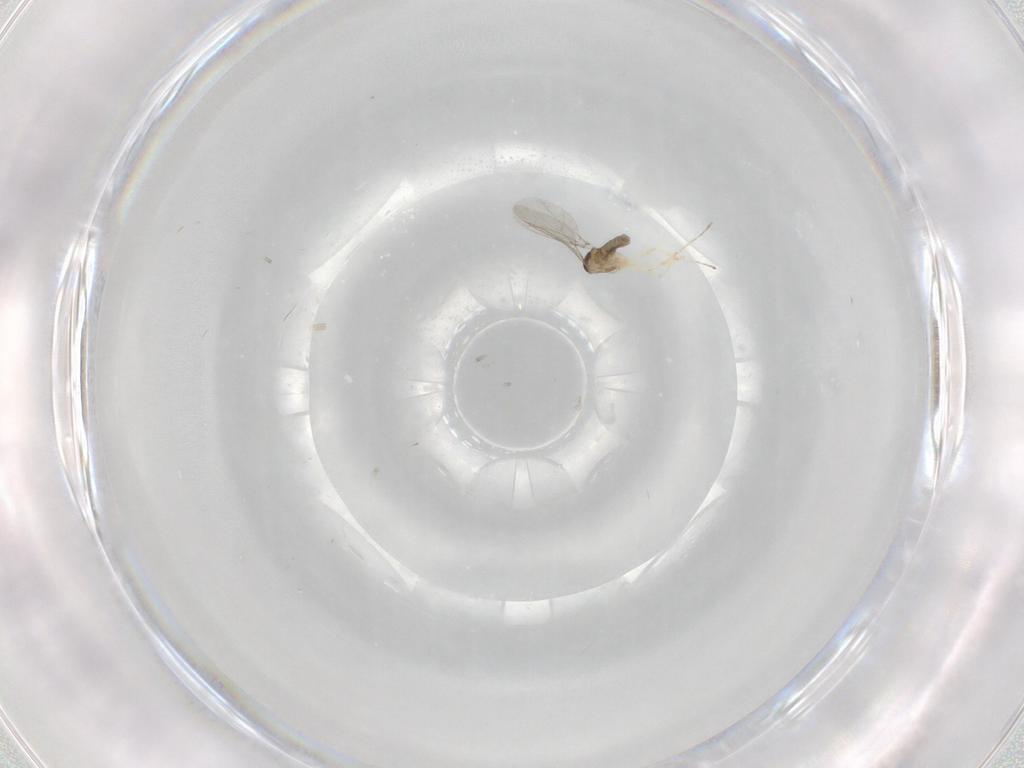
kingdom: Animalia
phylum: Arthropoda
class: Insecta
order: Diptera
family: Cecidomyiidae
